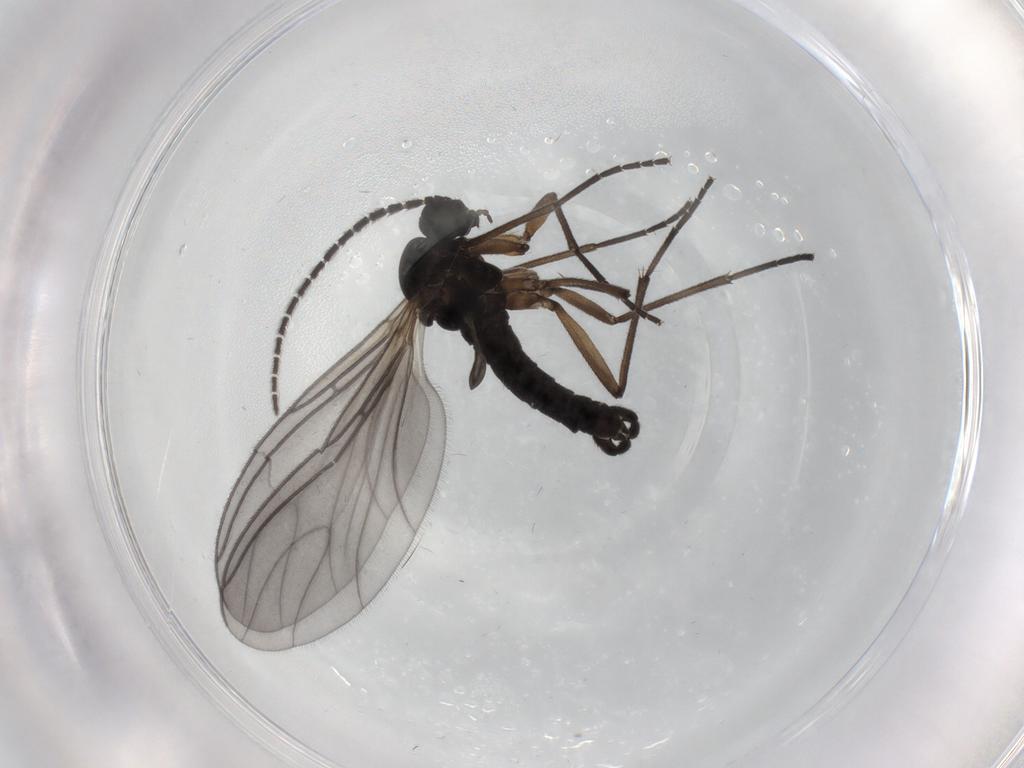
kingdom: Animalia
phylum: Arthropoda
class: Insecta
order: Diptera
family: Sciaridae
